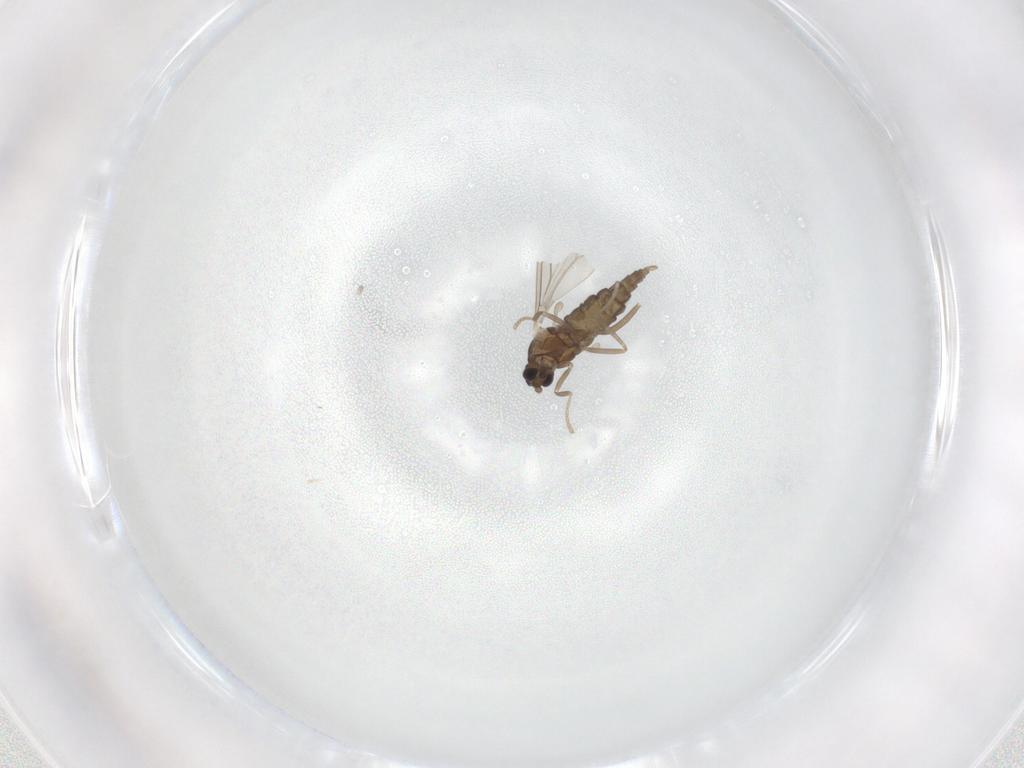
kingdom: Animalia
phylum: Arthropoda
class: Insecta
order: Diptera
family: Cecidomyiidae
